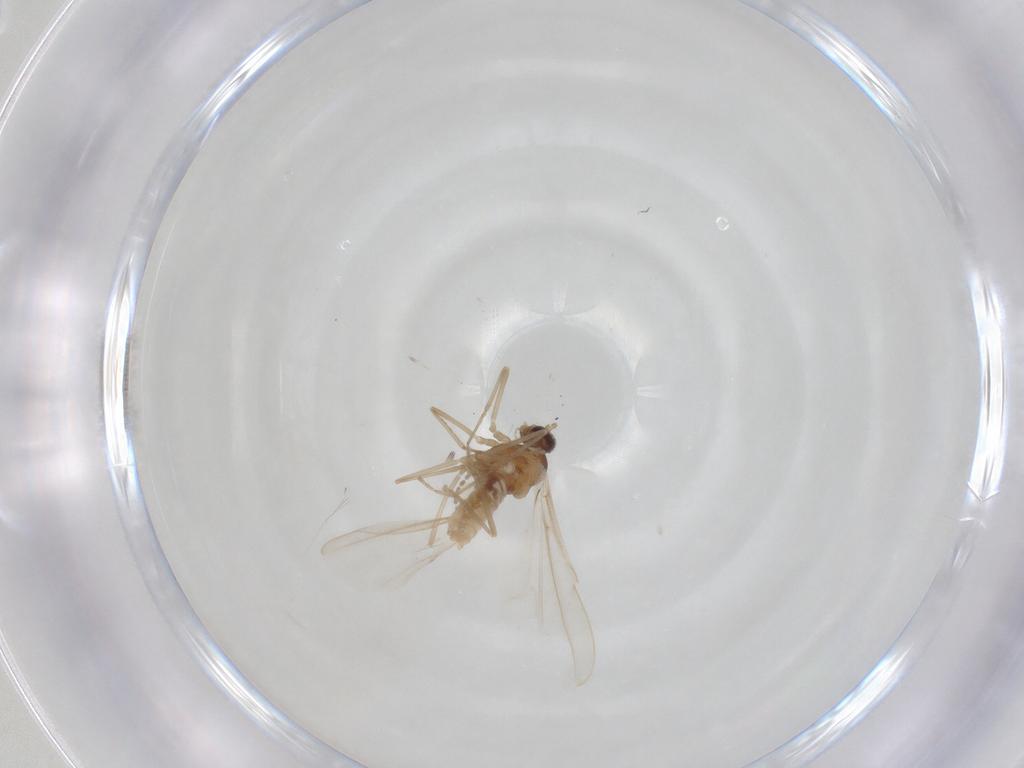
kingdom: Animalia
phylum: Arthropoda
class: Insecta
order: Diptera
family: Cecidomyiidae
